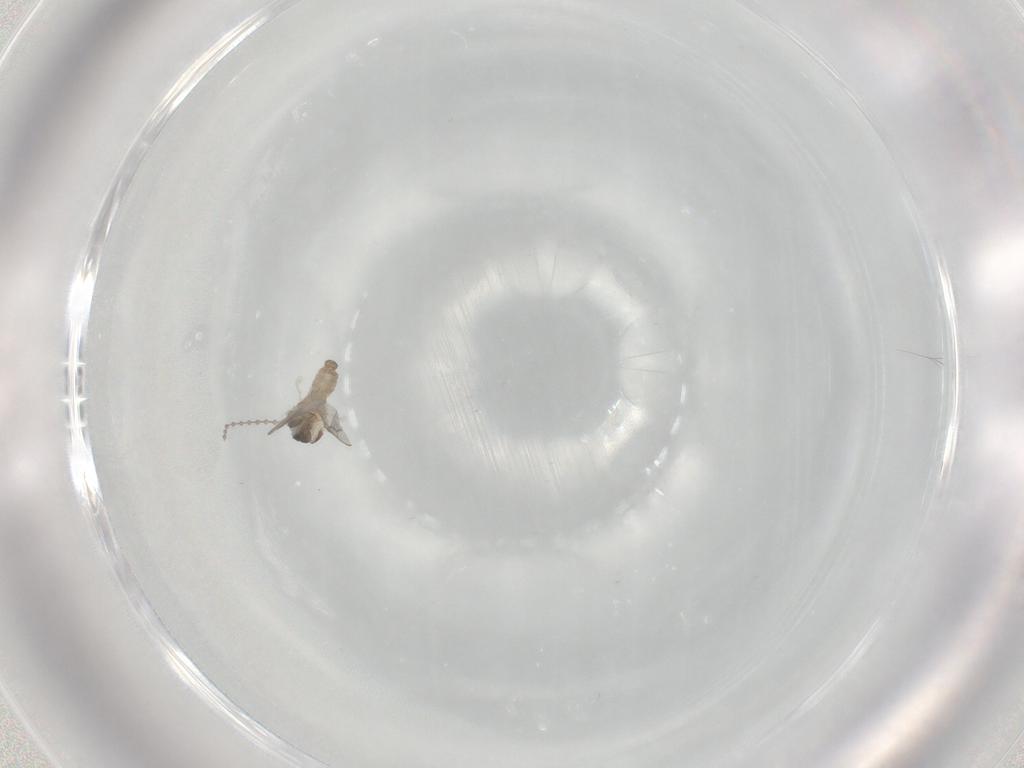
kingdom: Animalia
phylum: Arthropoda
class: Insecta
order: Diptera
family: Cecidomyiidae
